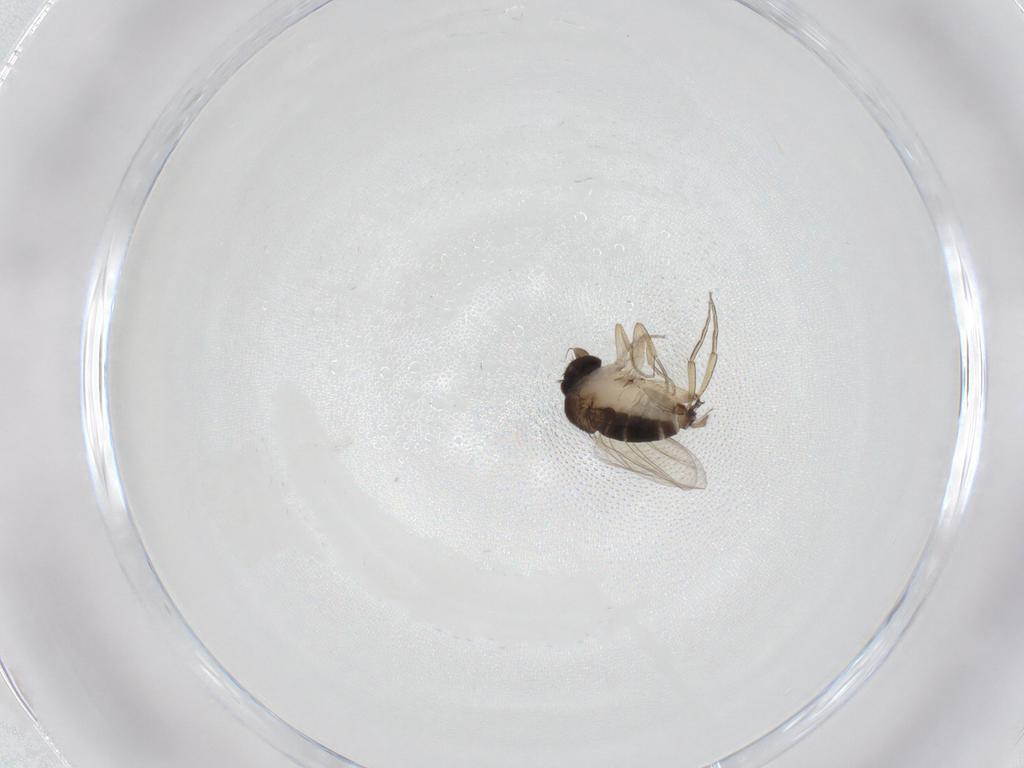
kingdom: Animalia
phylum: Arthropoda
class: Insecta
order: Diptera
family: Phoridae
